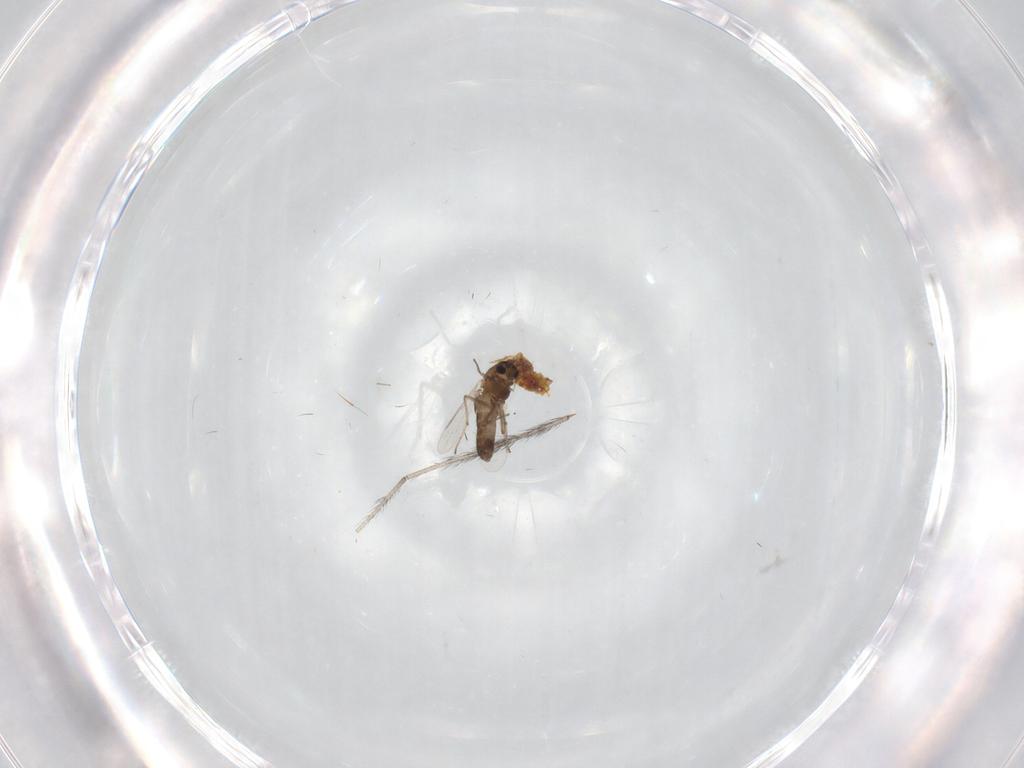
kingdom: Animalia
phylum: Arthropoda
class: Insecta
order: Diptera
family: Chironomidae
